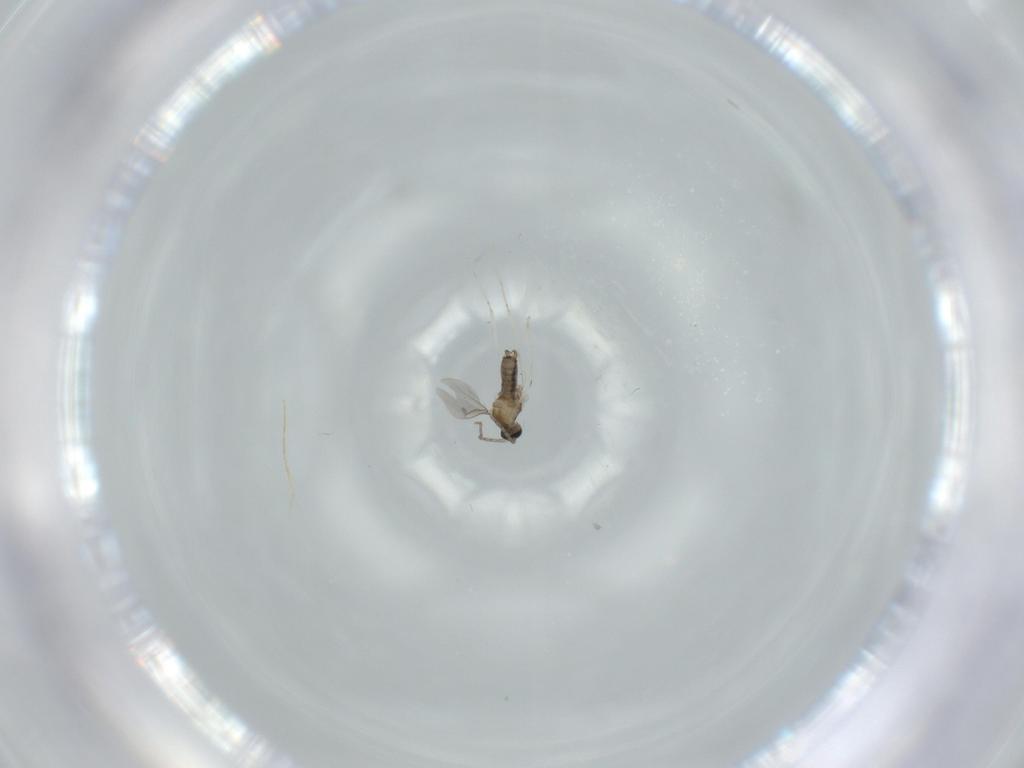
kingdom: Animalia
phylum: Arthropoda
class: Insecta
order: Diptera
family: Cecidomyiidae
